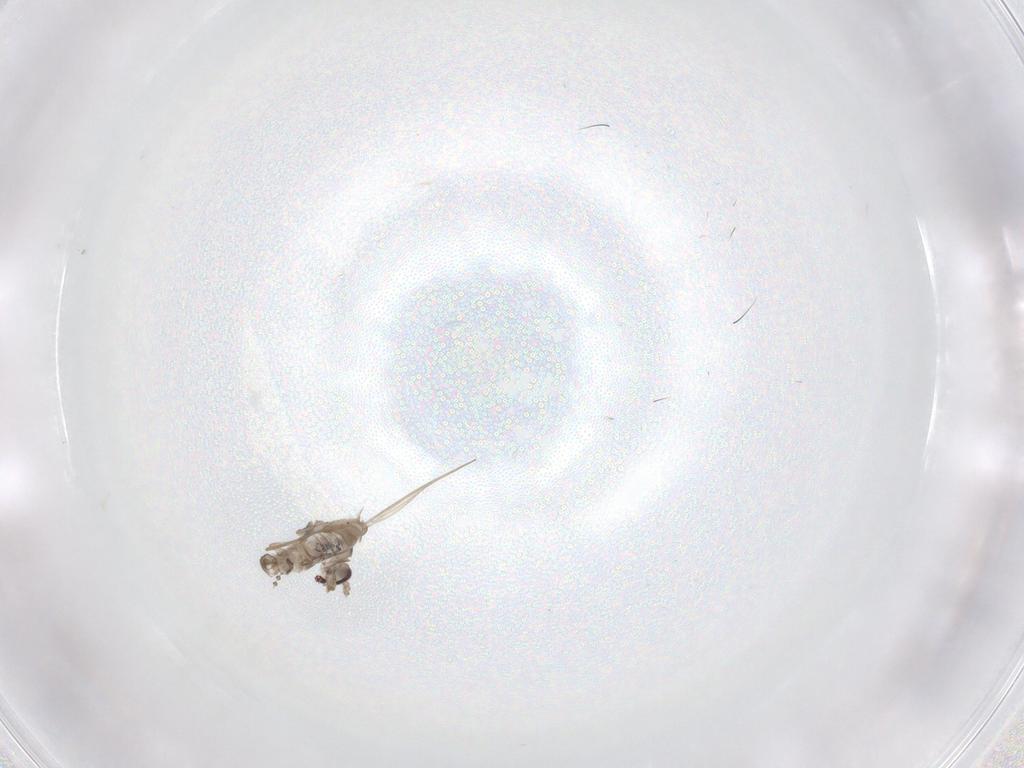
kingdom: Animalia
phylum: Arthropoda
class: Insecta
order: Diptera
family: Psychodidae
